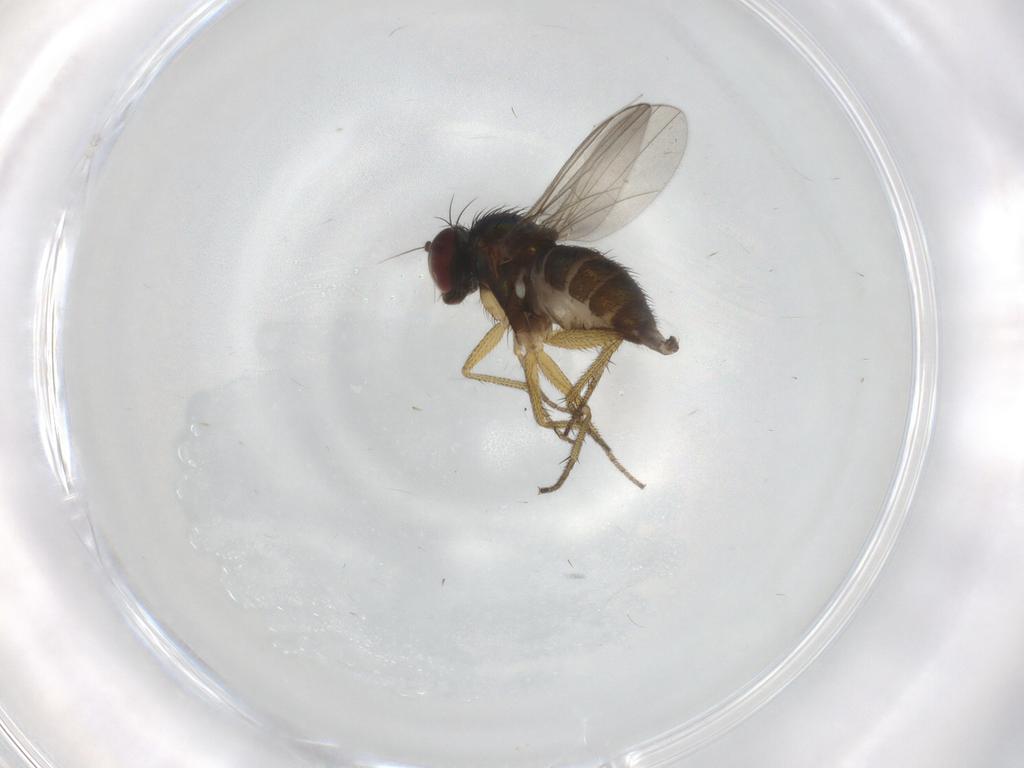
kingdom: Animalia
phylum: Arthropoda
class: Insecta
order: Diptera
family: Dolichopodidae
